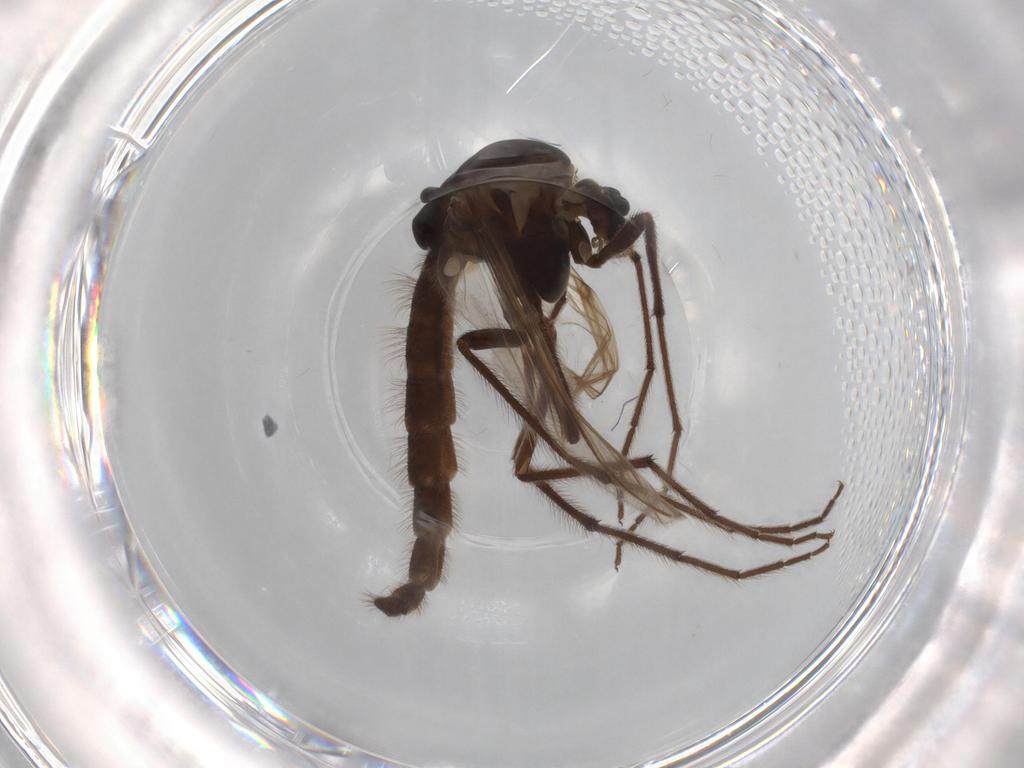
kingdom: Animalia
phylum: Arthropoda
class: Insecta
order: Diptera
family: Chironomidae
